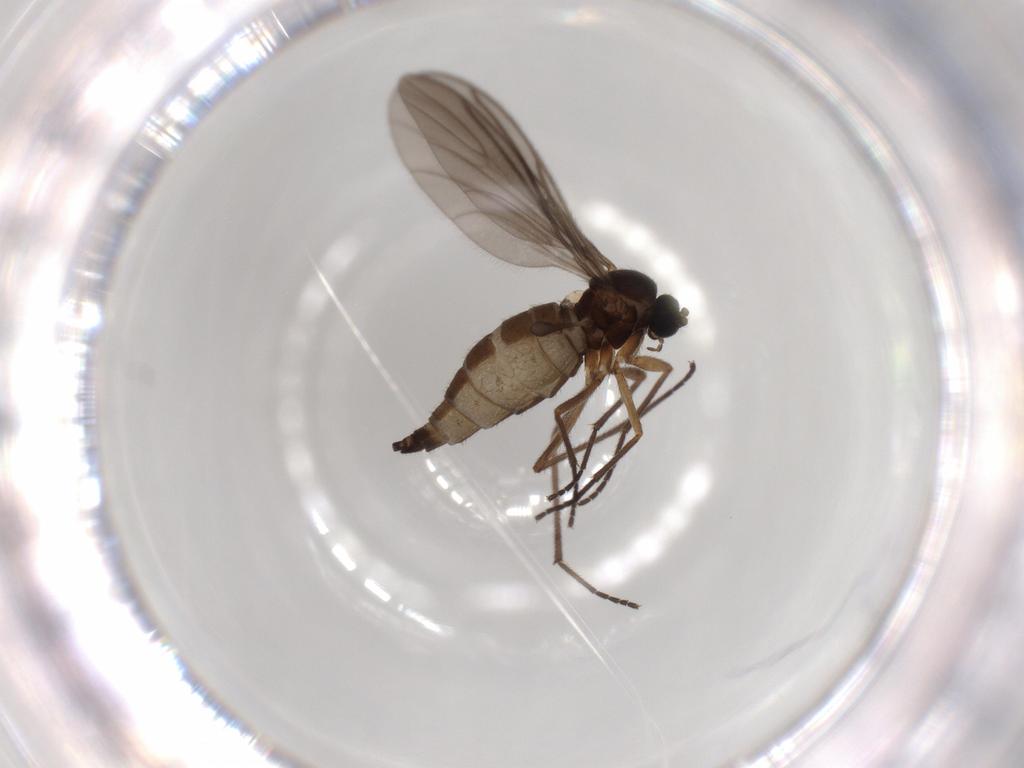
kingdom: Animalia
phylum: Arthropoda
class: Insecta
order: Diptera
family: Sciaridae
